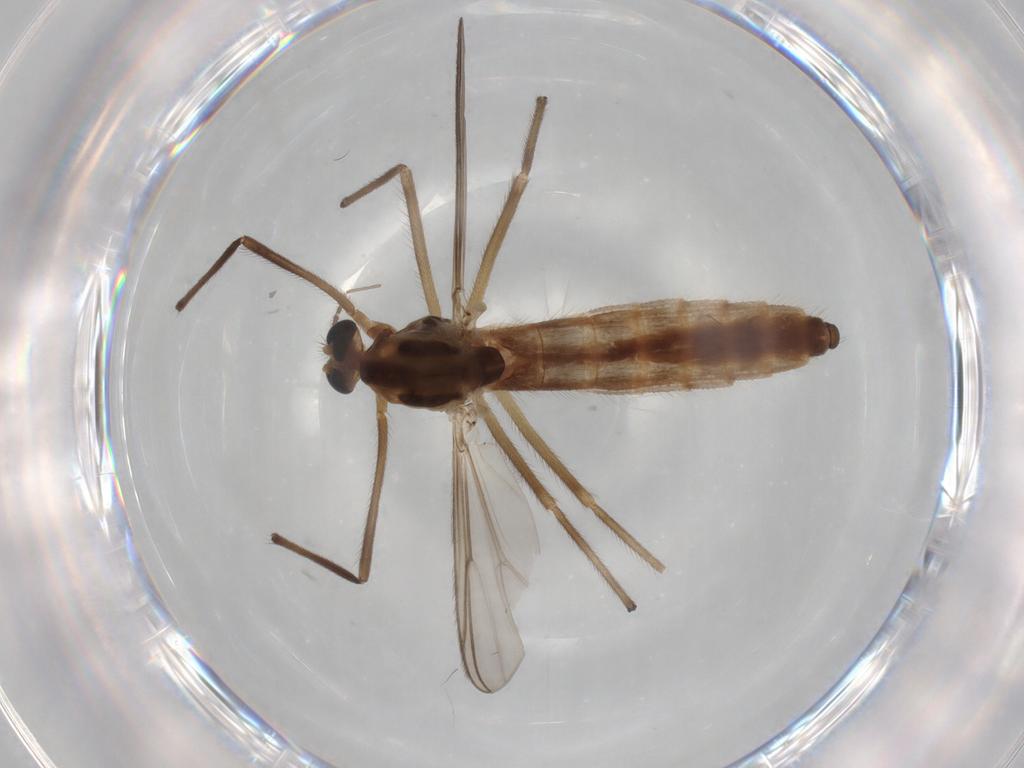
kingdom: Animalia
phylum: Arthropoda
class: Insecta
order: Diptera
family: Chironomidae
